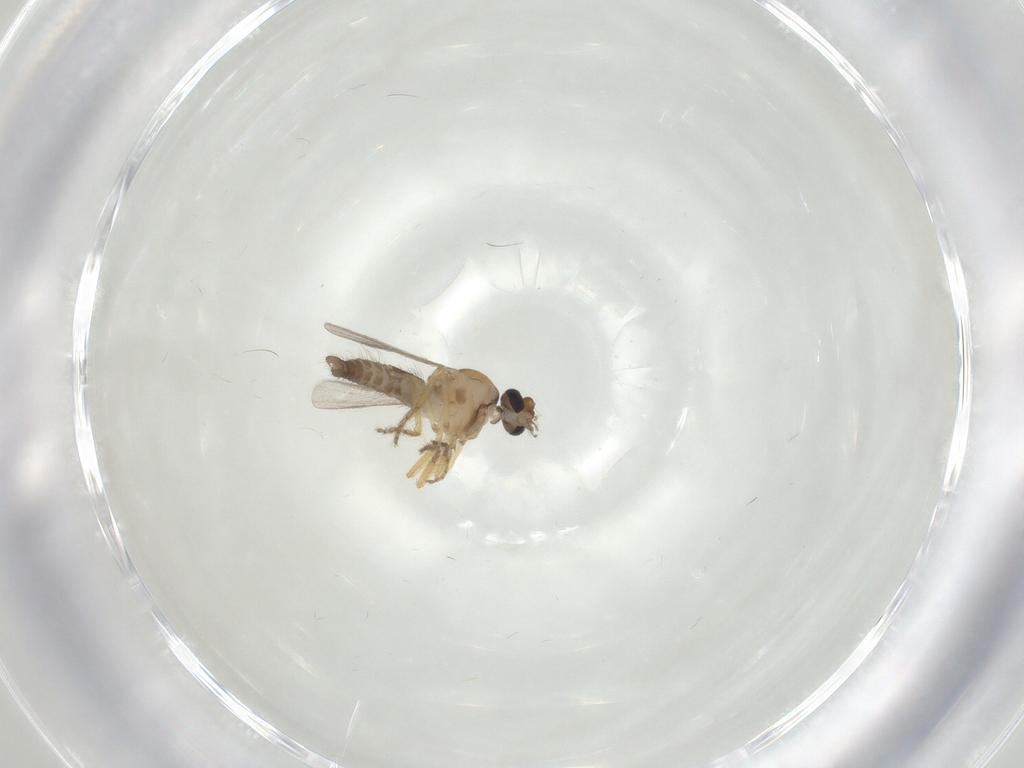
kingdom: Animalia
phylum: Arthropoda
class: Insecta
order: Diptera
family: Ceratopogonidae
